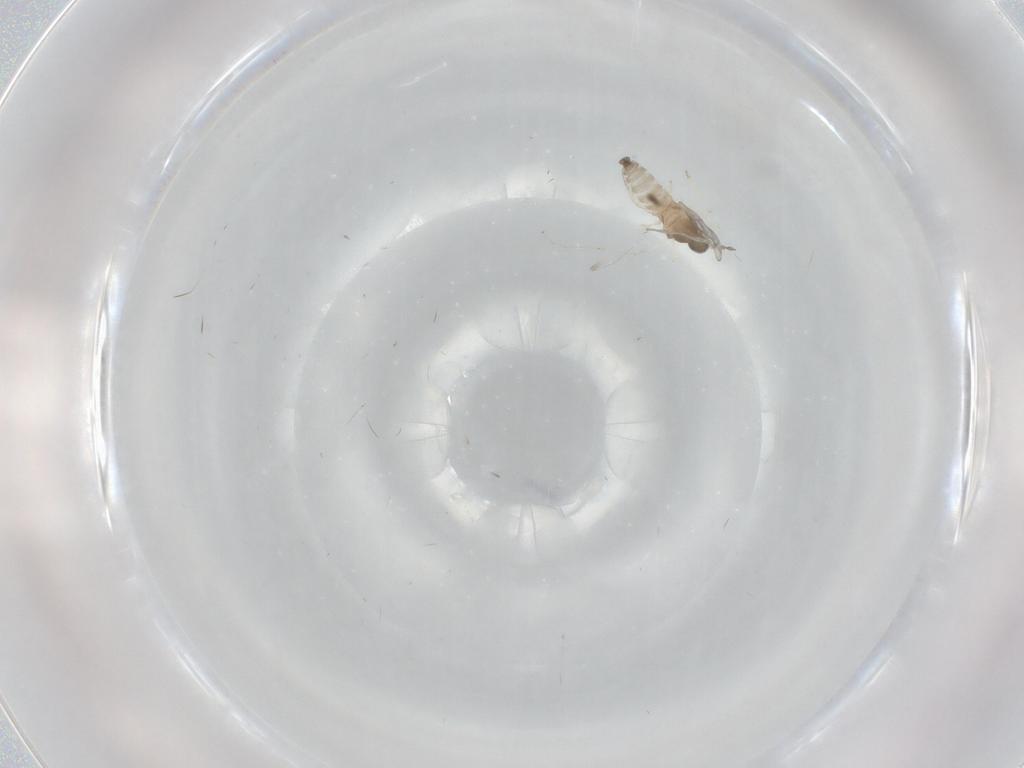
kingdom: Animalia
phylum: Arthropoda
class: Insecta
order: Diptera
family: Cecidomyiidae
